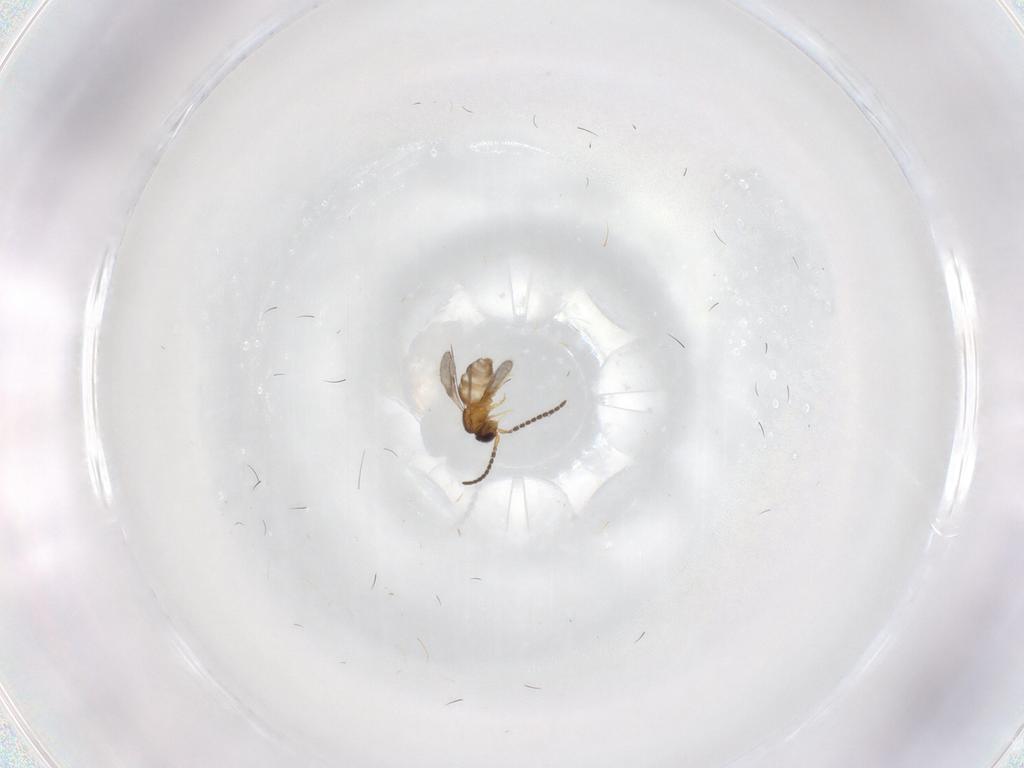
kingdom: Animalia
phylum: Arthropoda
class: Insecta
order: Hymenoptera
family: Ceraphronidae
